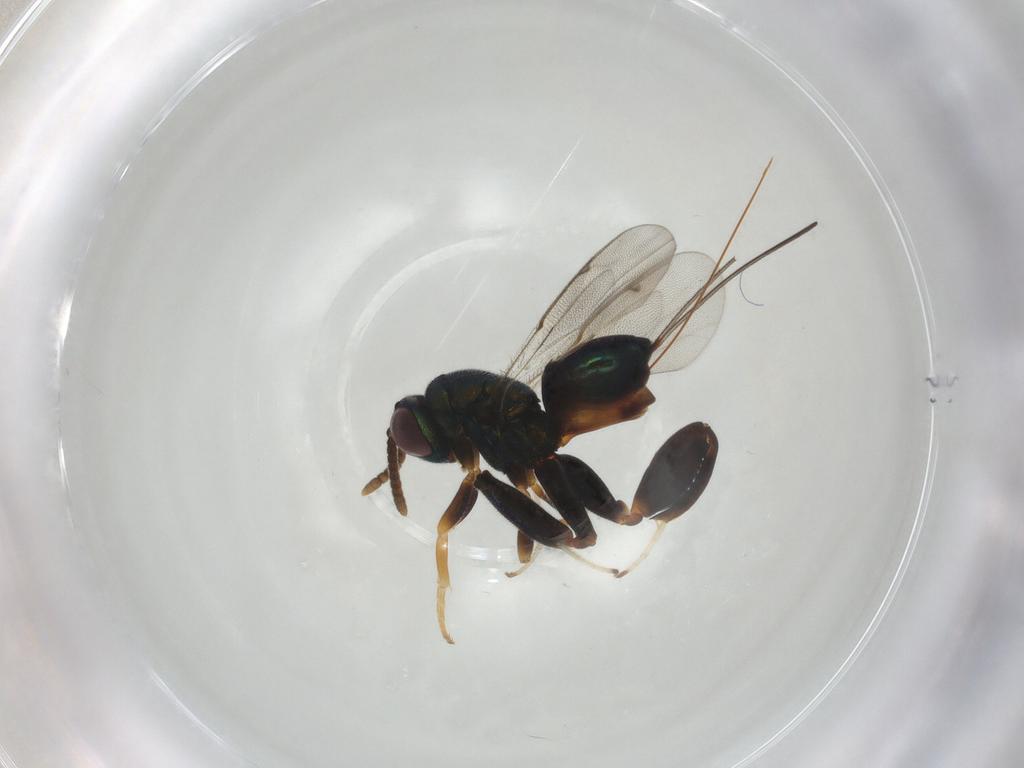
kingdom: Animalia
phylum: Arthropoda
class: Insecta
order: Hymenoptera
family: Torymidae
